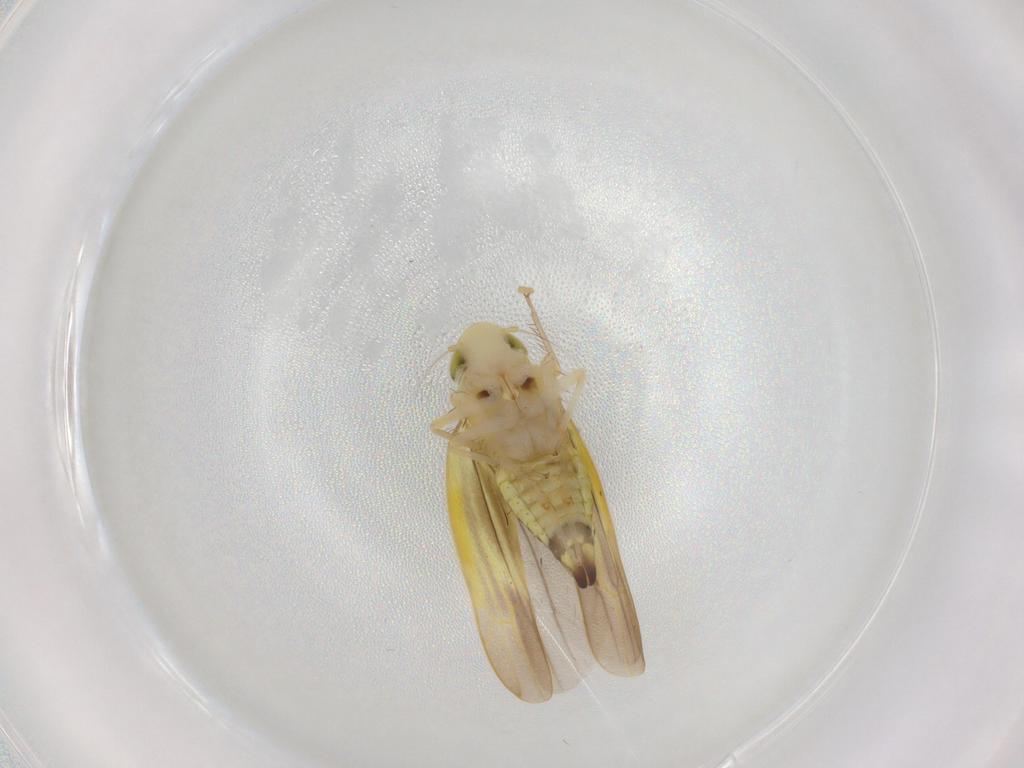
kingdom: Animalia
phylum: Arthropoda
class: Insecta
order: Hemiptera
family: Cicadellidae
